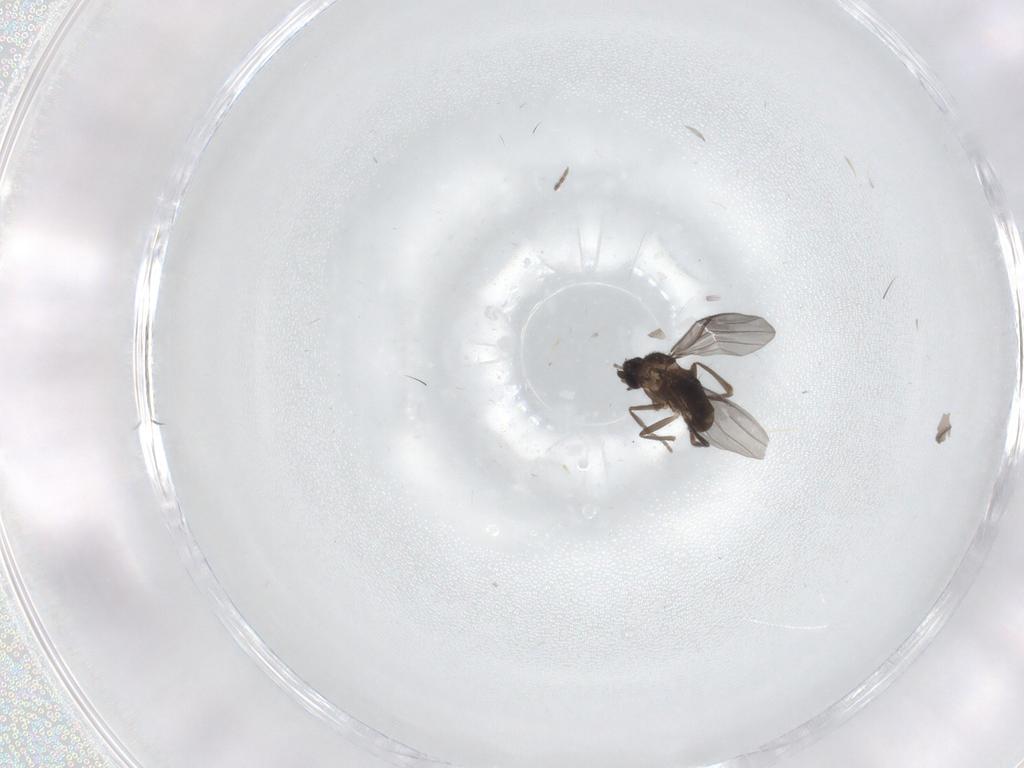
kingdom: Animalia
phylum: Arthropoda
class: Insecta
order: Diptera
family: Phoridae
